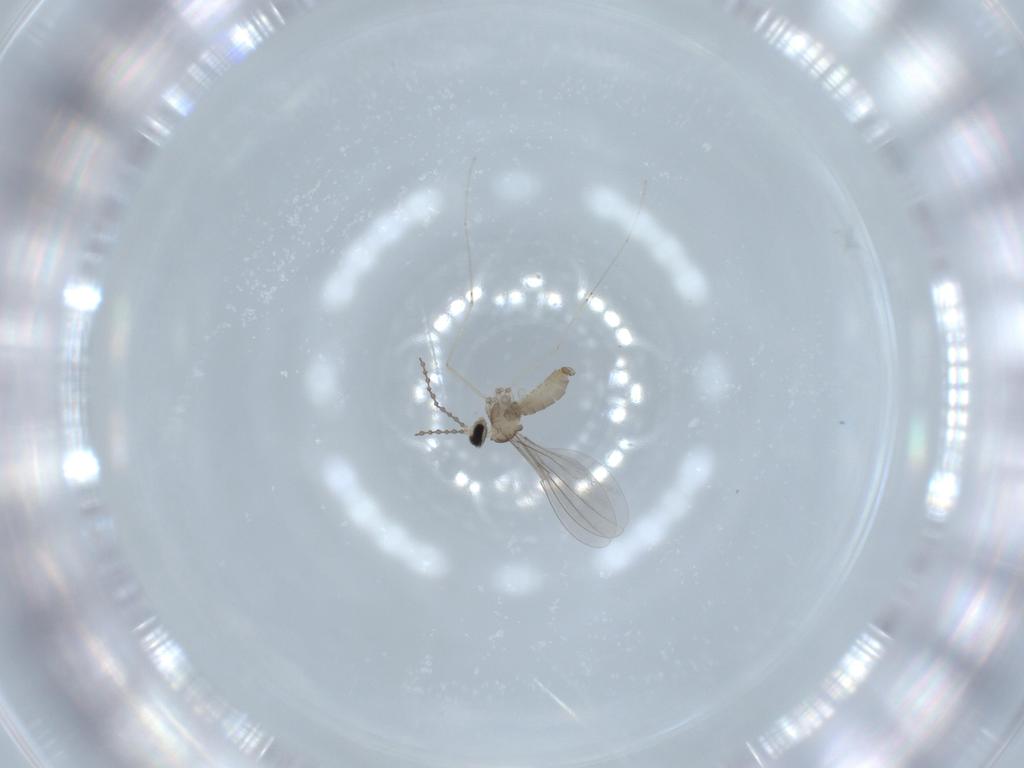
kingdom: Animalia
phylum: Arthropoda
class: Insecta
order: Diptera
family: Cecidomyiidae
